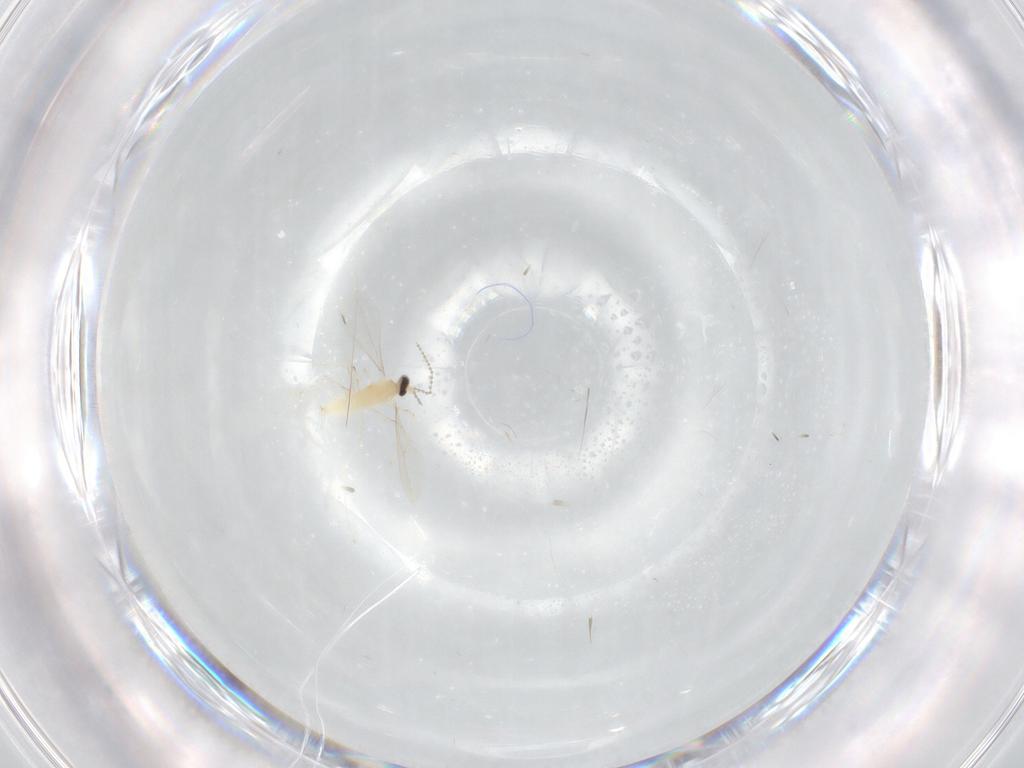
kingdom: Animalia
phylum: Arthropoda
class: Insecta
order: Diptera
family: Cecidomyiidae
